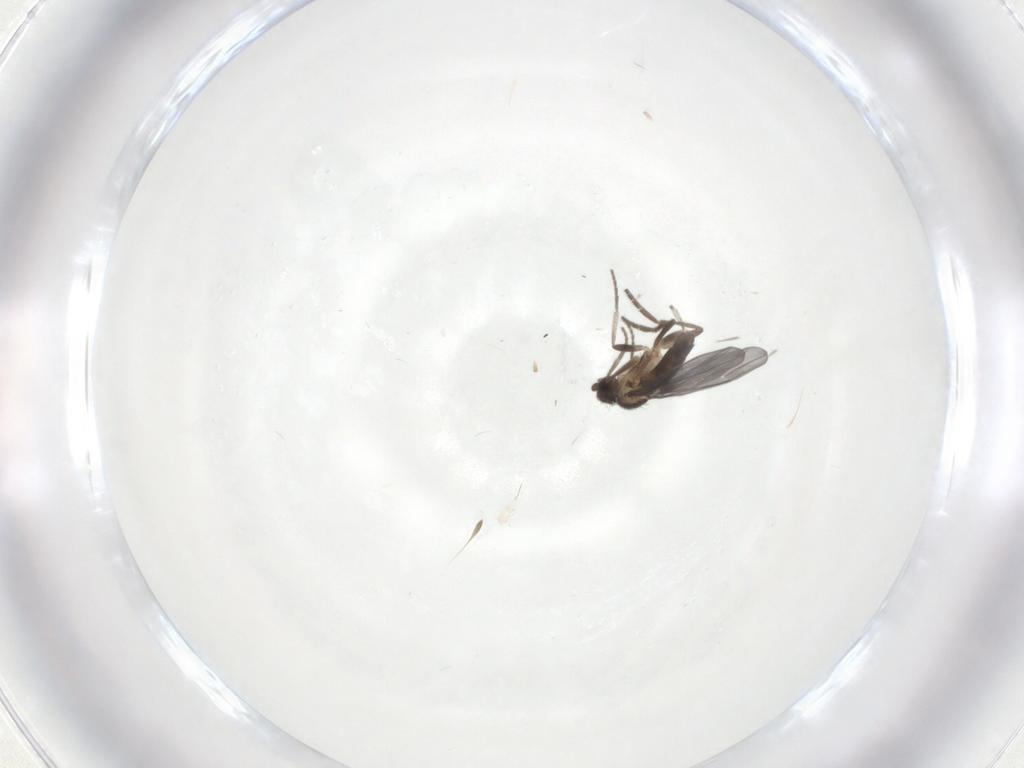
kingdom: Animalia
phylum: Arthropoda
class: Insecta
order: Diptera
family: Phoridae
